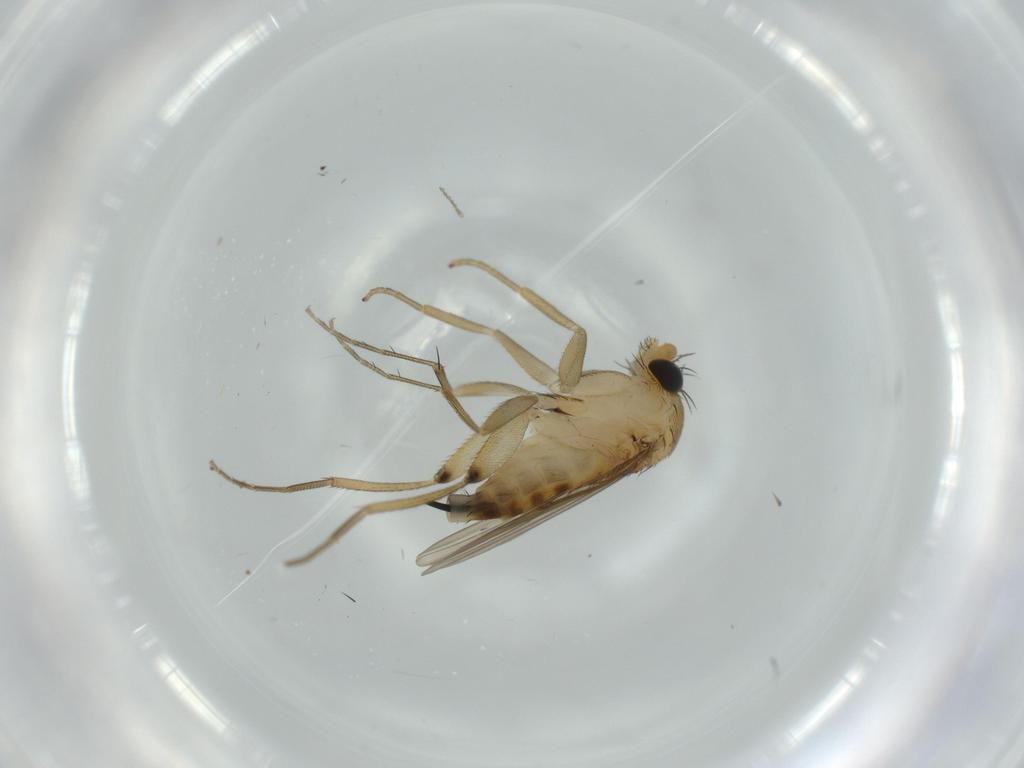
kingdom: Animalia
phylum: Arthropoda
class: Insecta
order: Diptera
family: Phoridae
